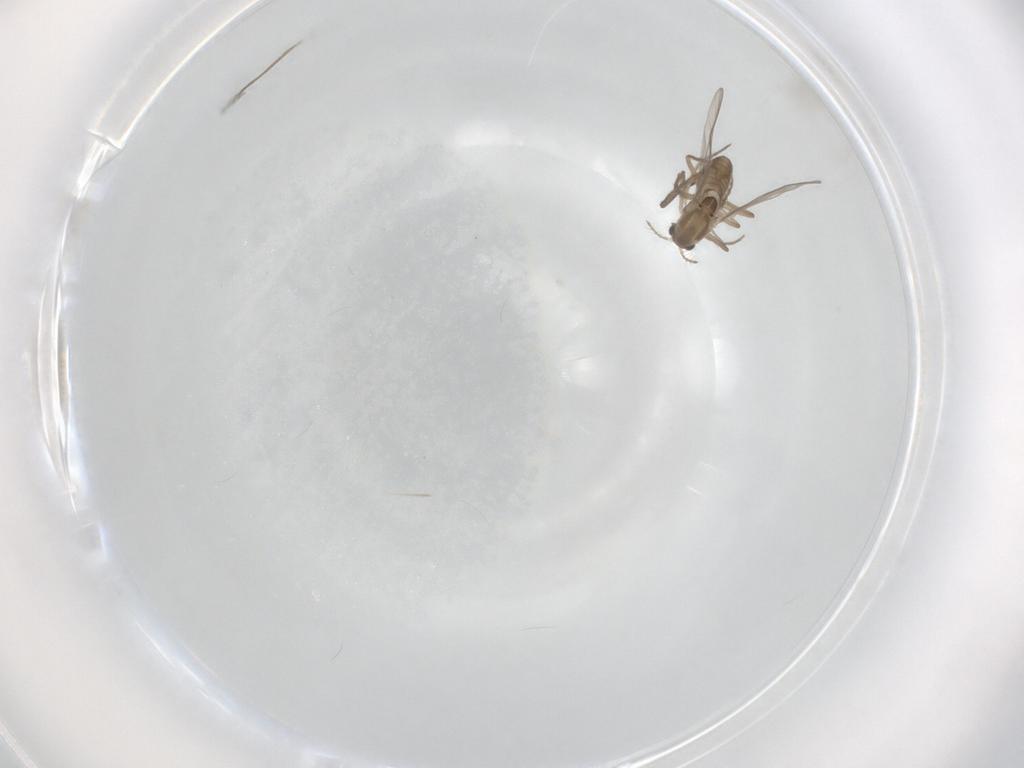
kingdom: Animalia
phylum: Arthropoda
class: Insecta
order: Diptera
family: Chironomidae
